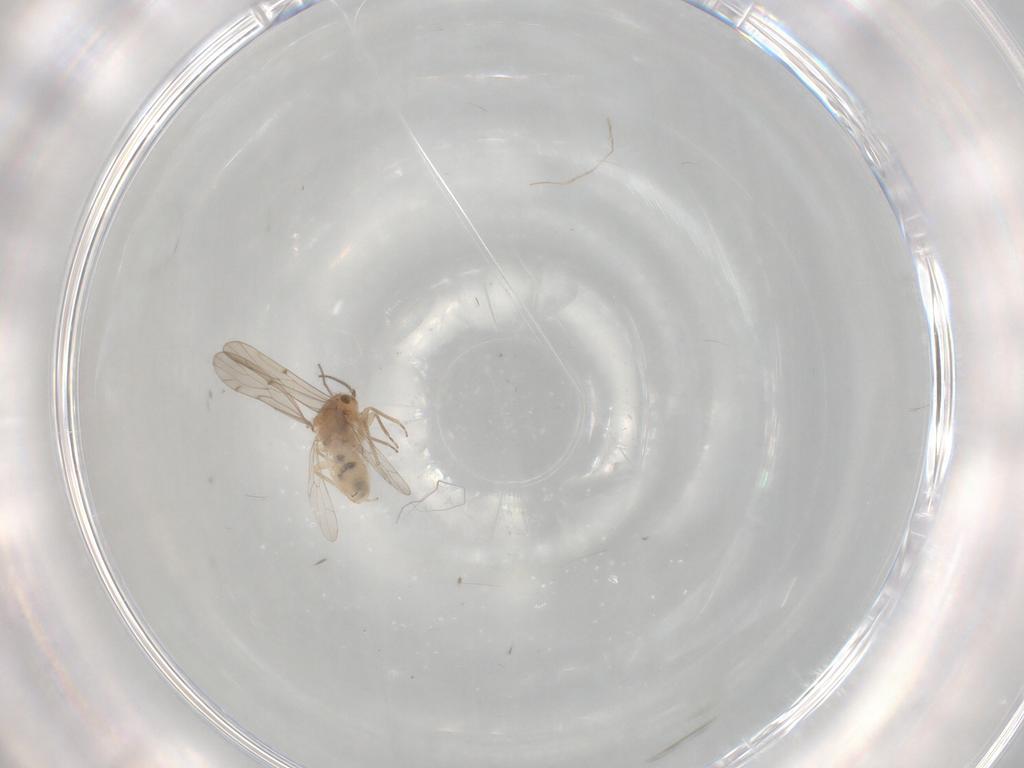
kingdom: Animalia
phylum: Arthropoda
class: Insecta
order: Psocodea
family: Ectopsocidae
